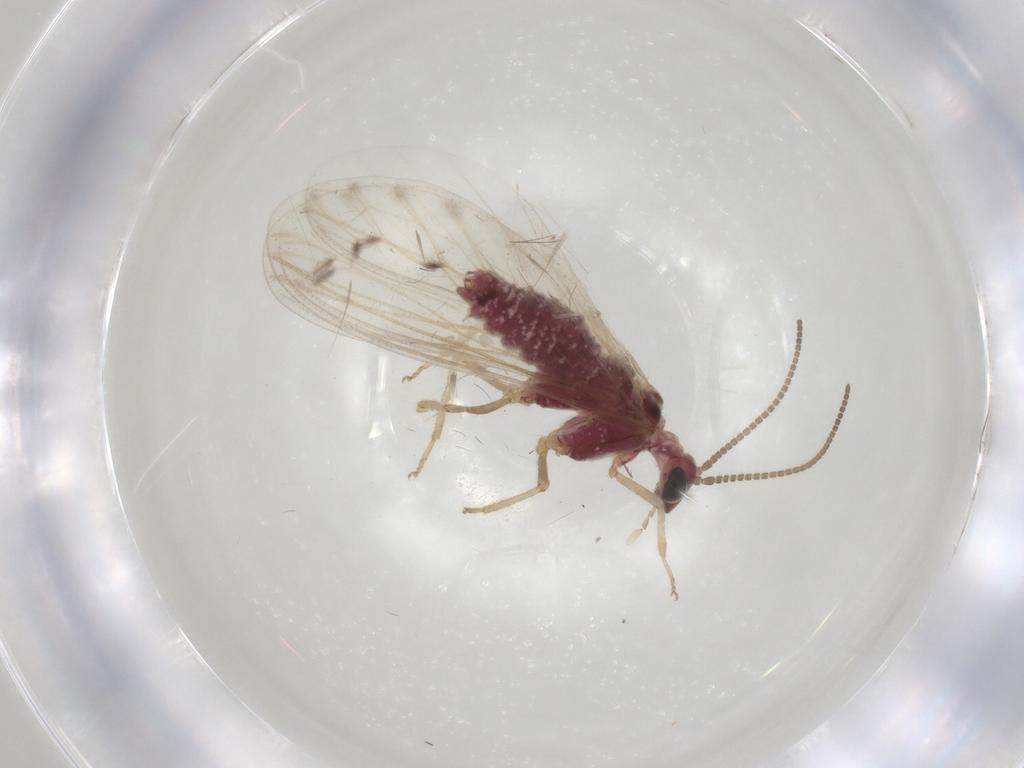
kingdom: Animalia
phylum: Arthropoda
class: Insecta
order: Neuroptera
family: Coniopterygidae
